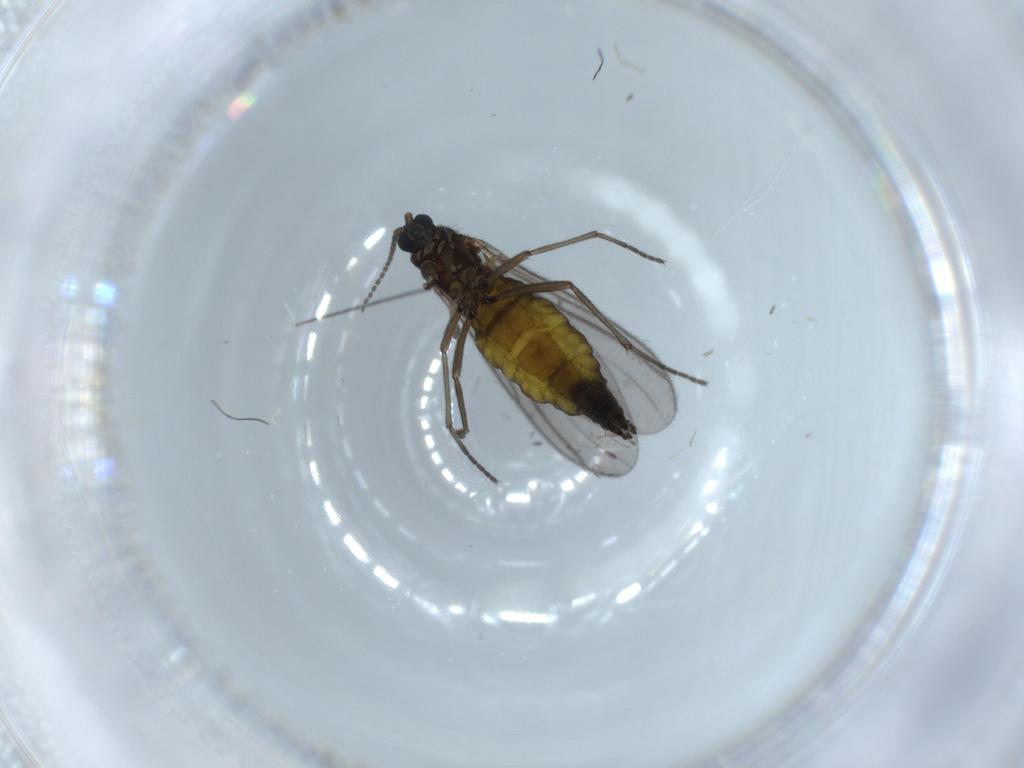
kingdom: Animalia
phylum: Arthropoda
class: Insecta
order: Diptera
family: Sciaridae
